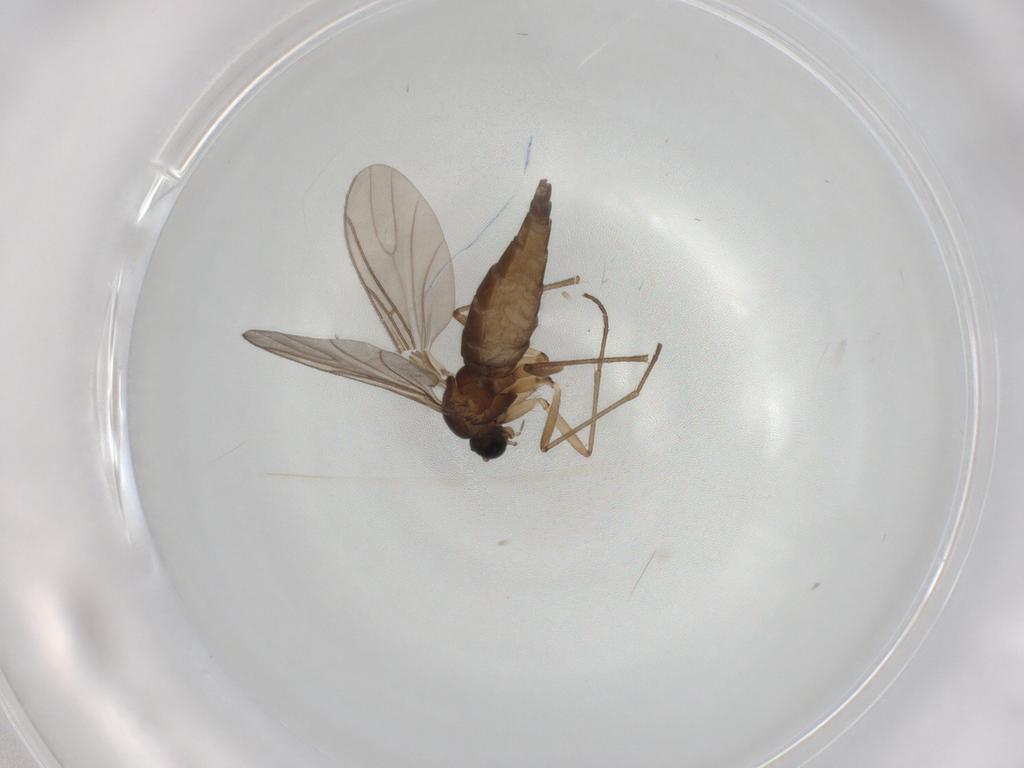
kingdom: Animalia
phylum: Arthropoda
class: Insecta
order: Diptera
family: Sciaridae
